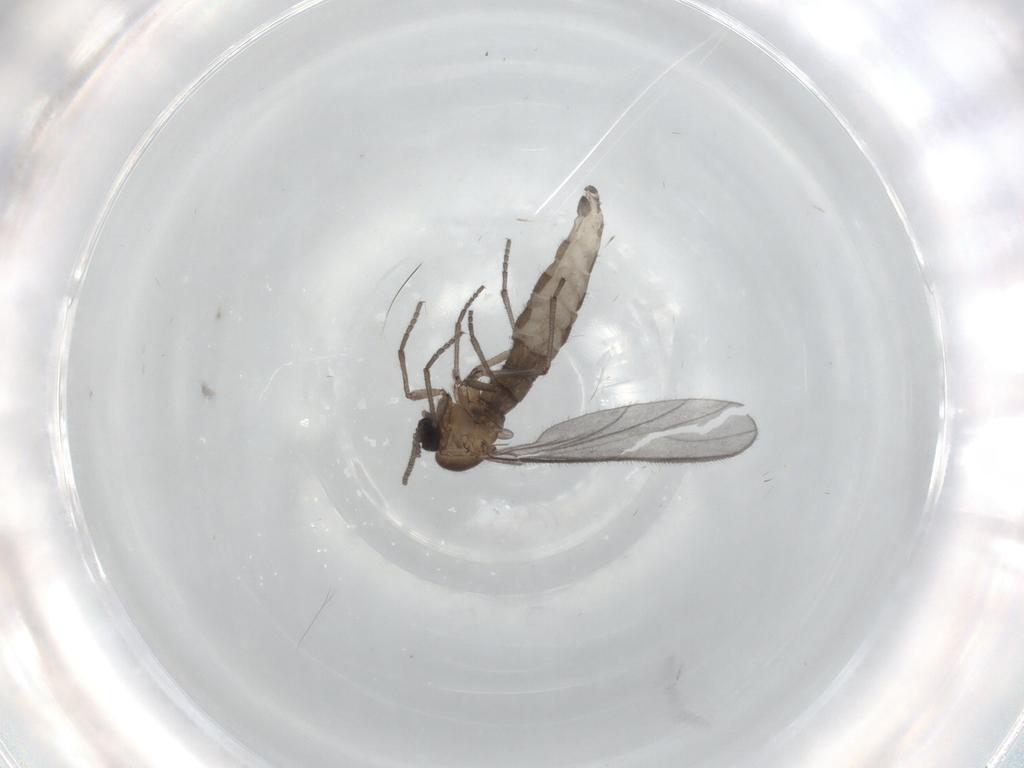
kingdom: Animalia
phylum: Arthropoda
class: Insecta
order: Diptera
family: Sciaridae
